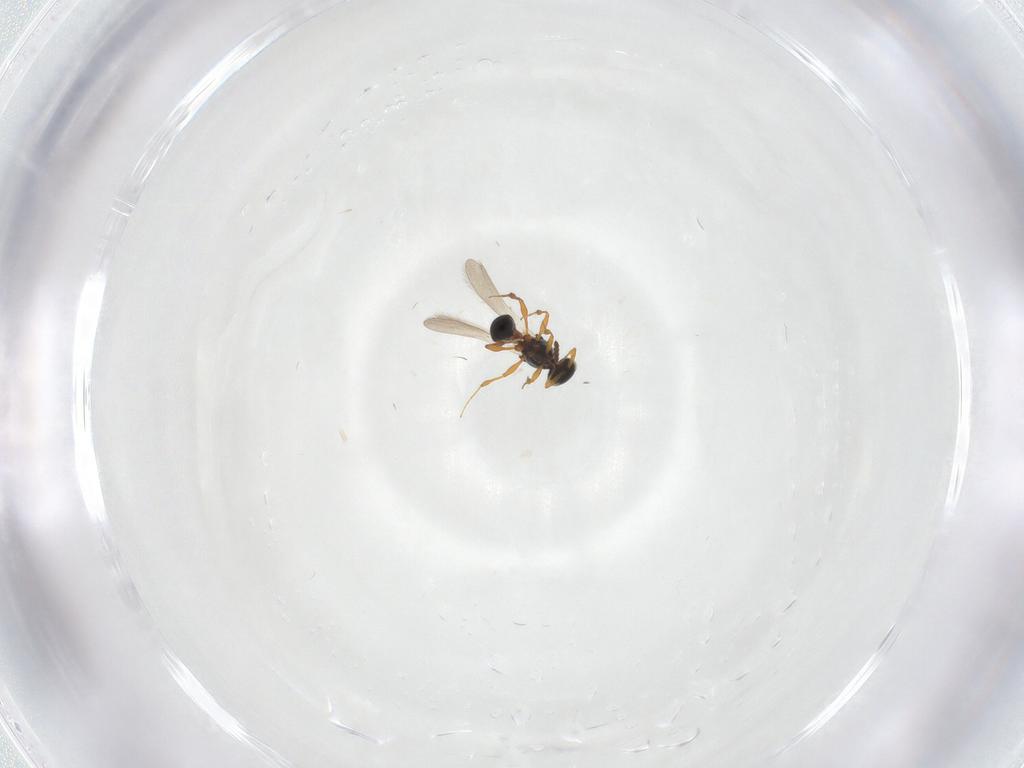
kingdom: Animalia
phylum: Arthropoda
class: Insecta
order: Hymenoptera
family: Platygastridae
